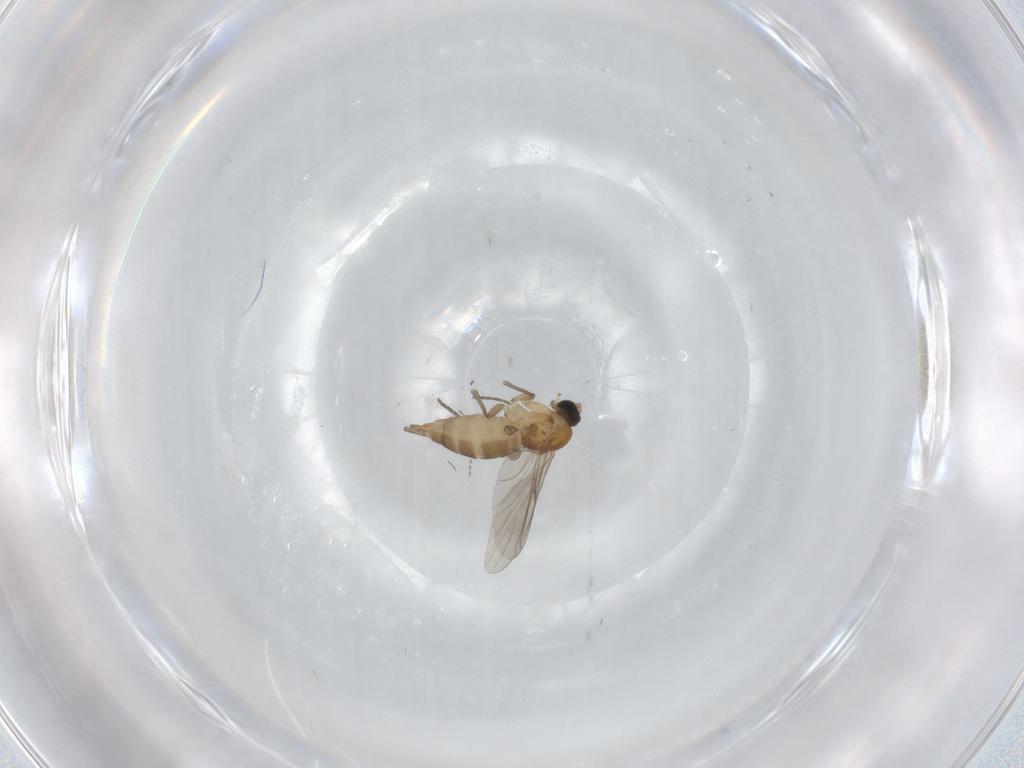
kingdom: Animalia
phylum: Arthropoda
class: Insecta
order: Diptera
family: Sciaridae
